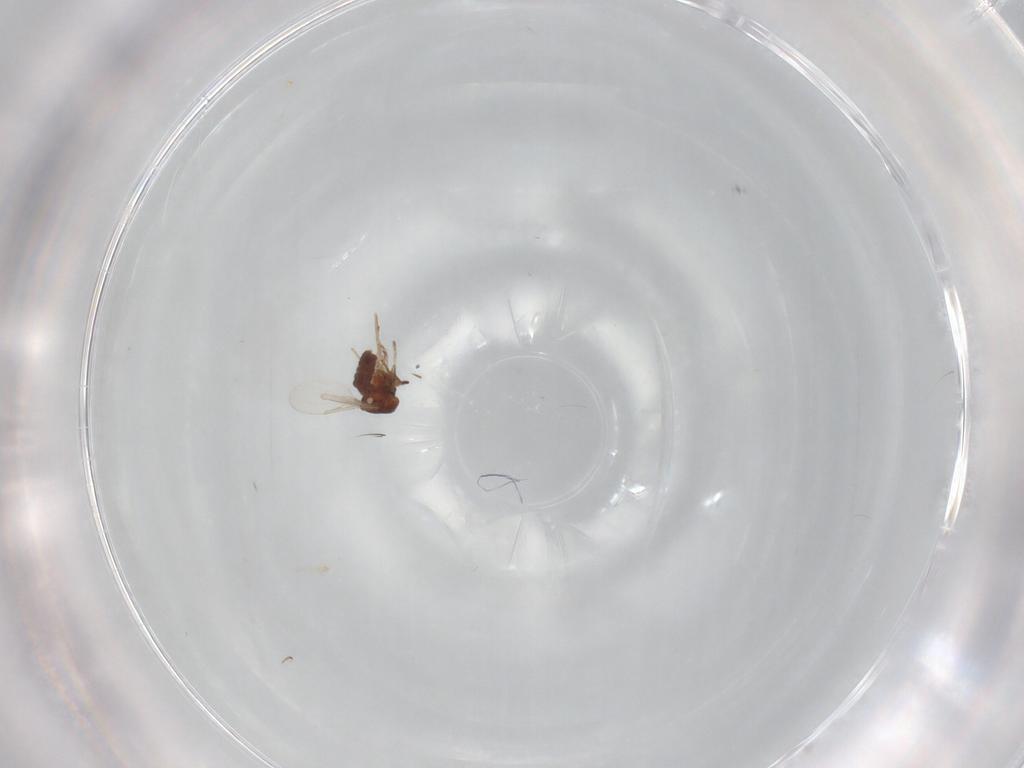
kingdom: Animalia
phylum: Arthropoda
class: Insecta
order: Diptera
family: Ceratopogonidae
